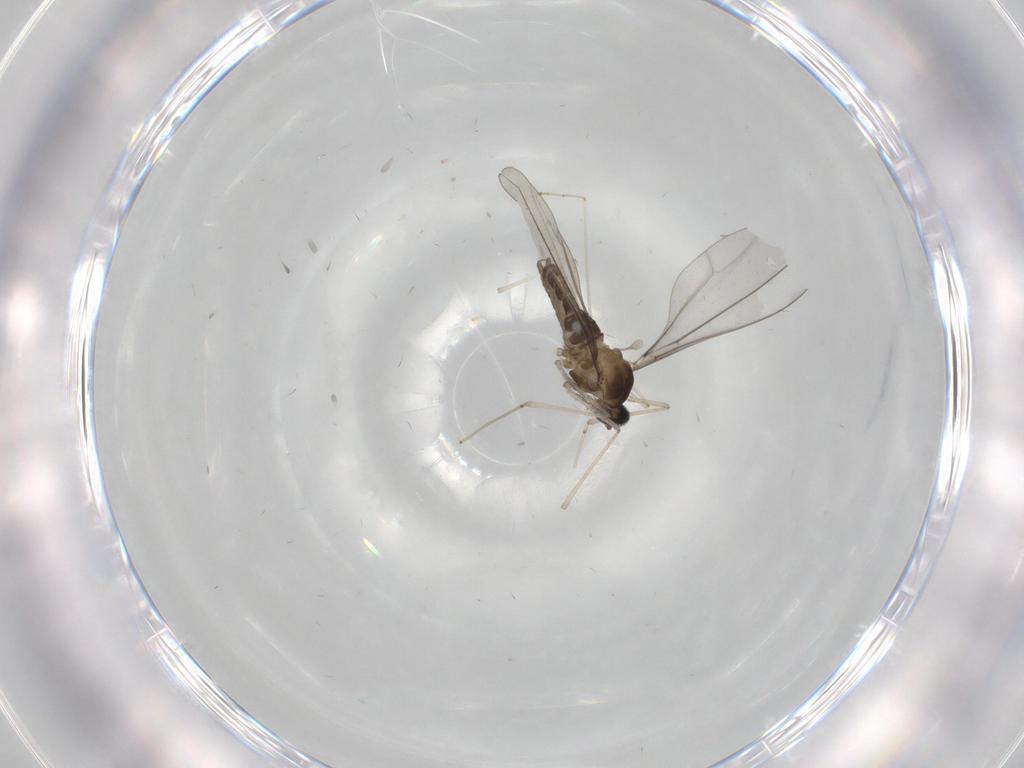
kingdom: Animalia
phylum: Arthropoda
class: Insecta
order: Diptera
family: Cecidomyiidae
